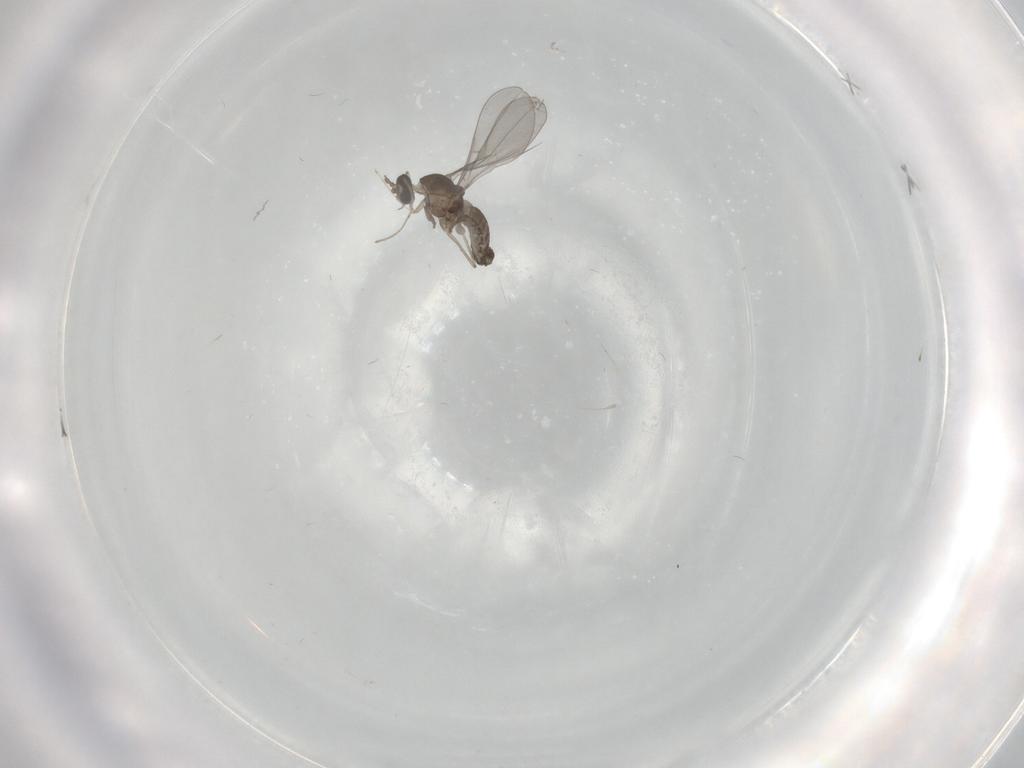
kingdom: Animalia
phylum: Arthropoda
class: Insecta
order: Diptera
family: Cecidomyiidae
